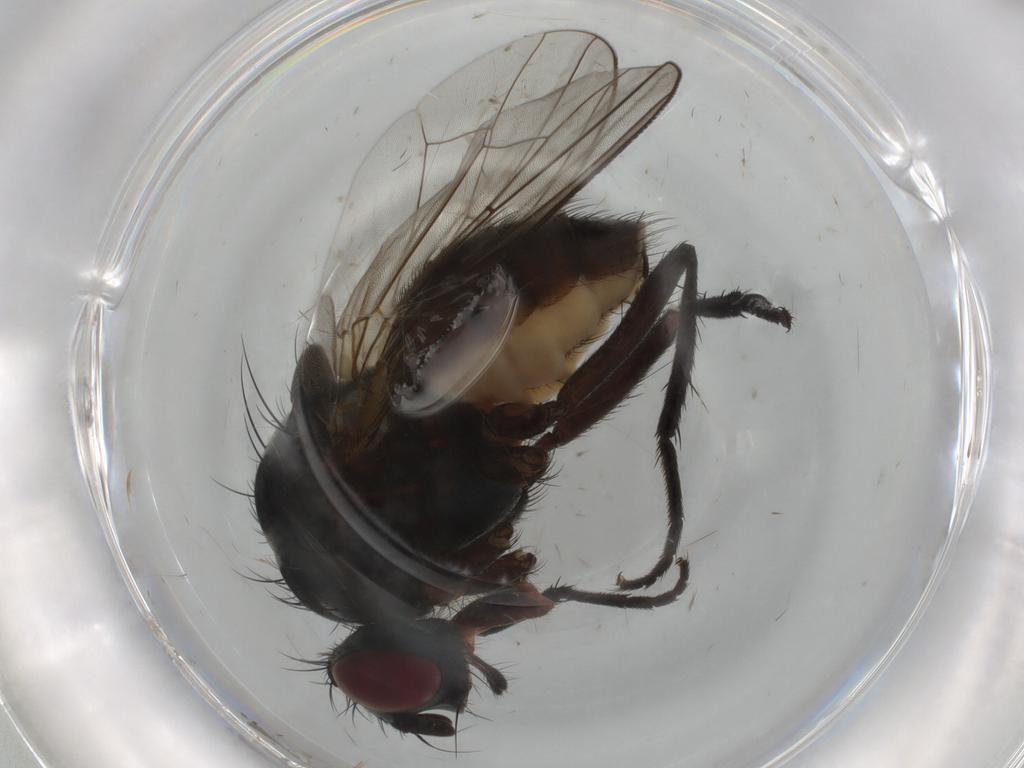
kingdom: Animalia
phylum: Arthropoda
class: Insecta
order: Diptera
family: Anthomyiidae
